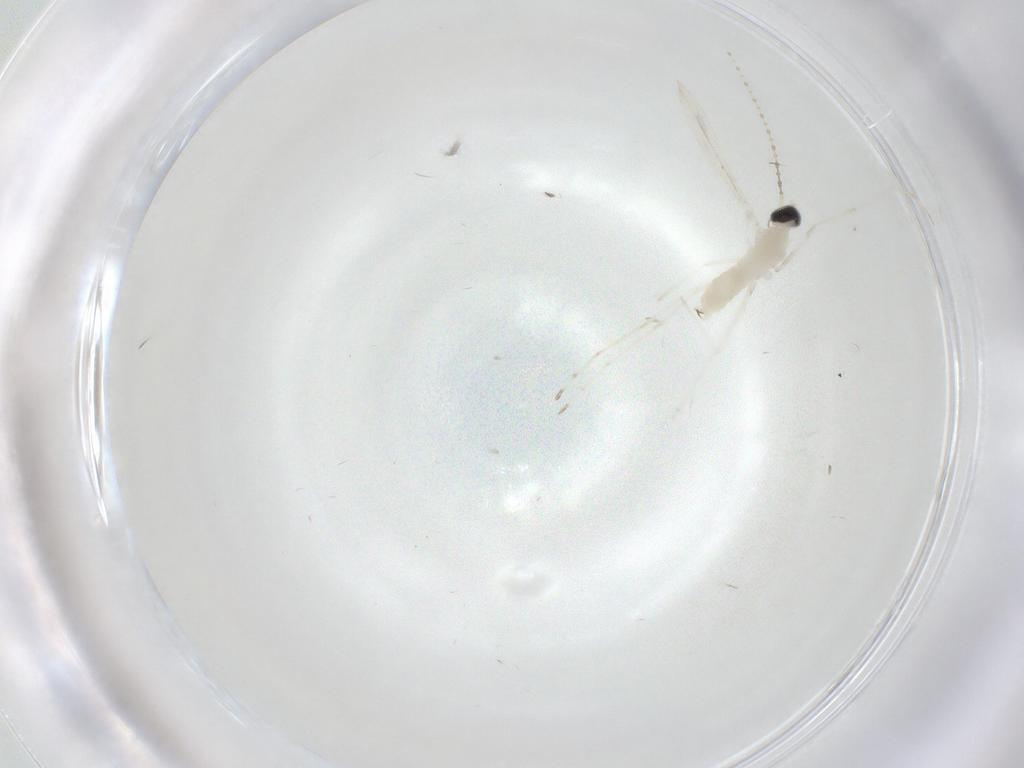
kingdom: Animalia
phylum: Arthropoda
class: Insecta
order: Diptera
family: Cecidomyiidae
